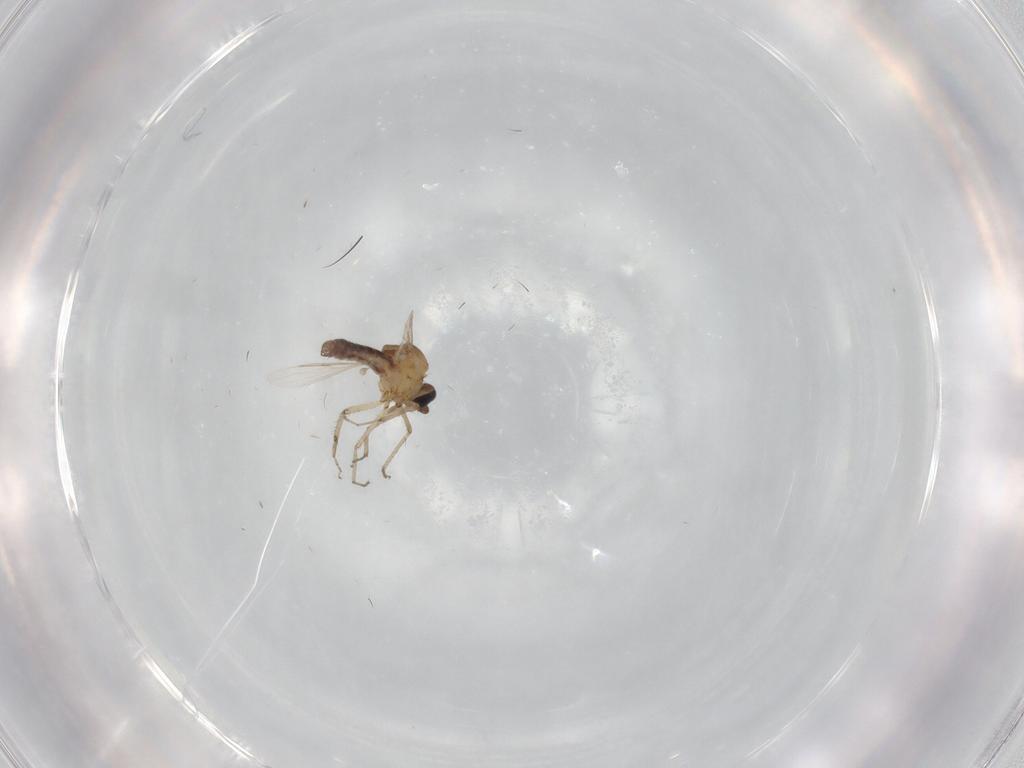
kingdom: Animalia
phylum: Arthropoda
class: Insecta
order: Diptera
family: Ceratopogonidae
